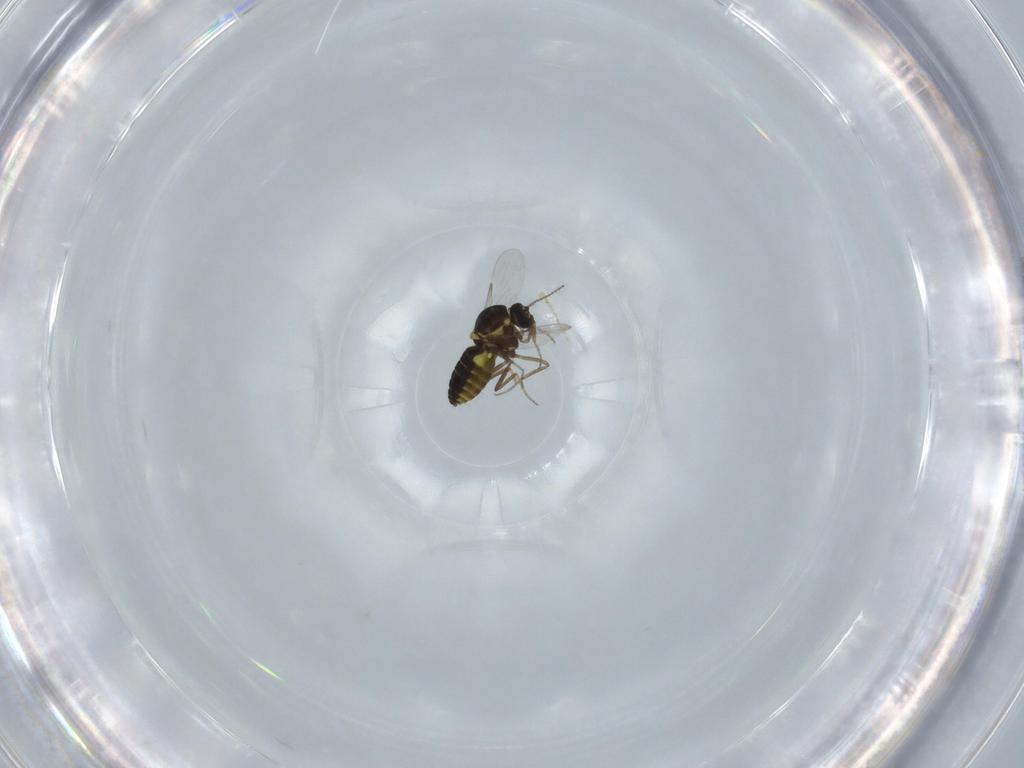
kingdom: Animalia
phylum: Arthropoda
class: Insecta
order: Diptera
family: Ceratopogonidae
